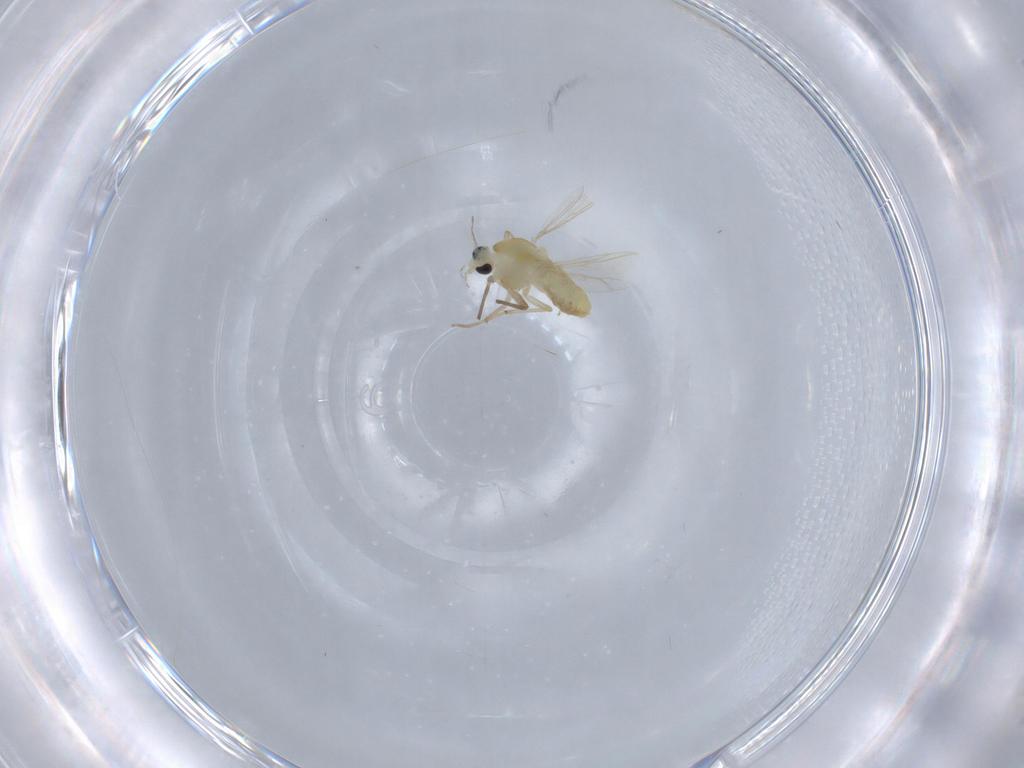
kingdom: Animalia
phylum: Arthropoda
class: Insecta
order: Diptera
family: Chironomidae
